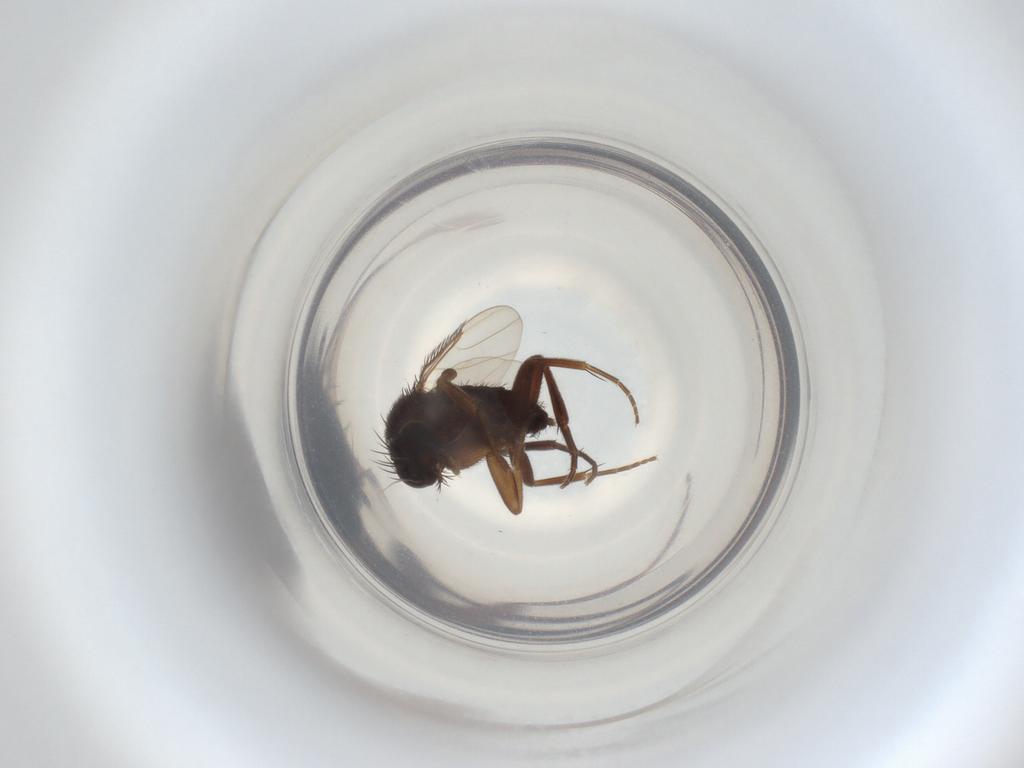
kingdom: Animalia
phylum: Arthropoda
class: Insecta
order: Diptera
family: Phoridae
